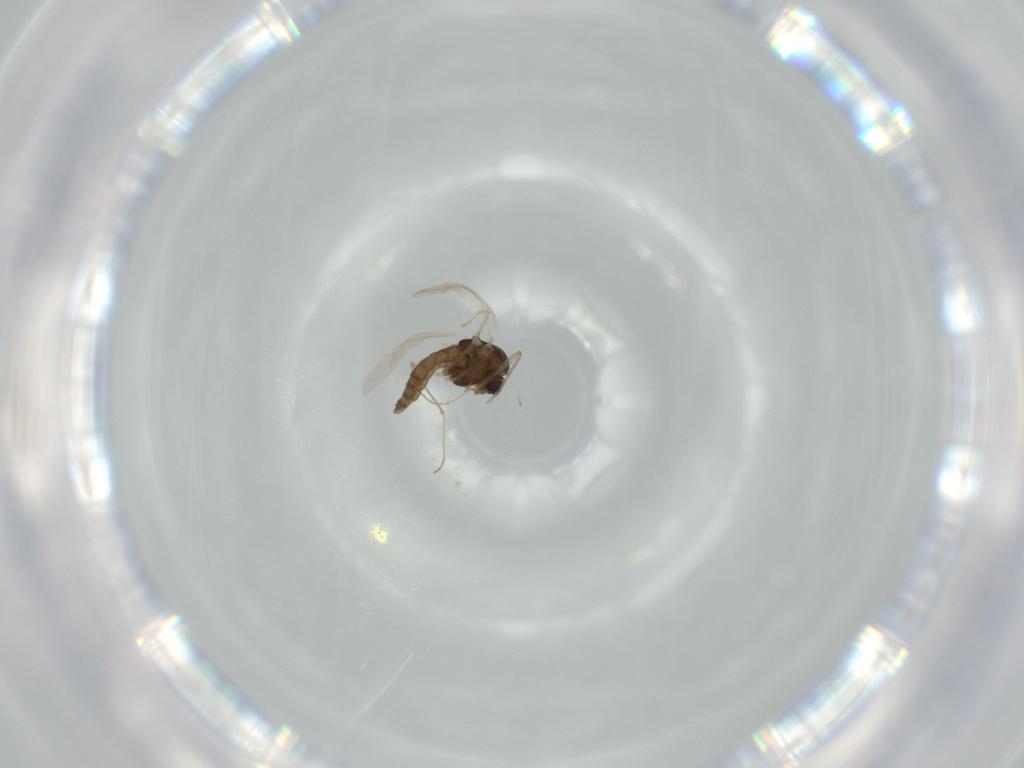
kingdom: Animalia
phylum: Arthropoda
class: Insecta
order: Diptera
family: Chironomidae
